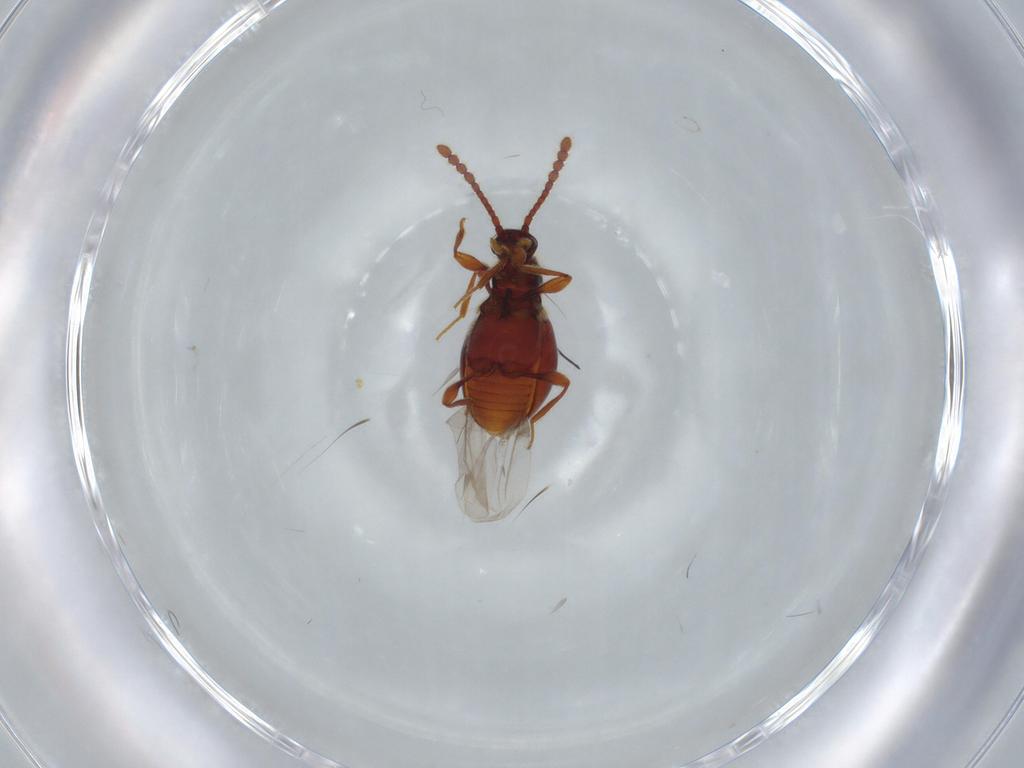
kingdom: Animalia
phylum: Arthropoda
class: Insecta
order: Coleoptera
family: Staphylinidae
